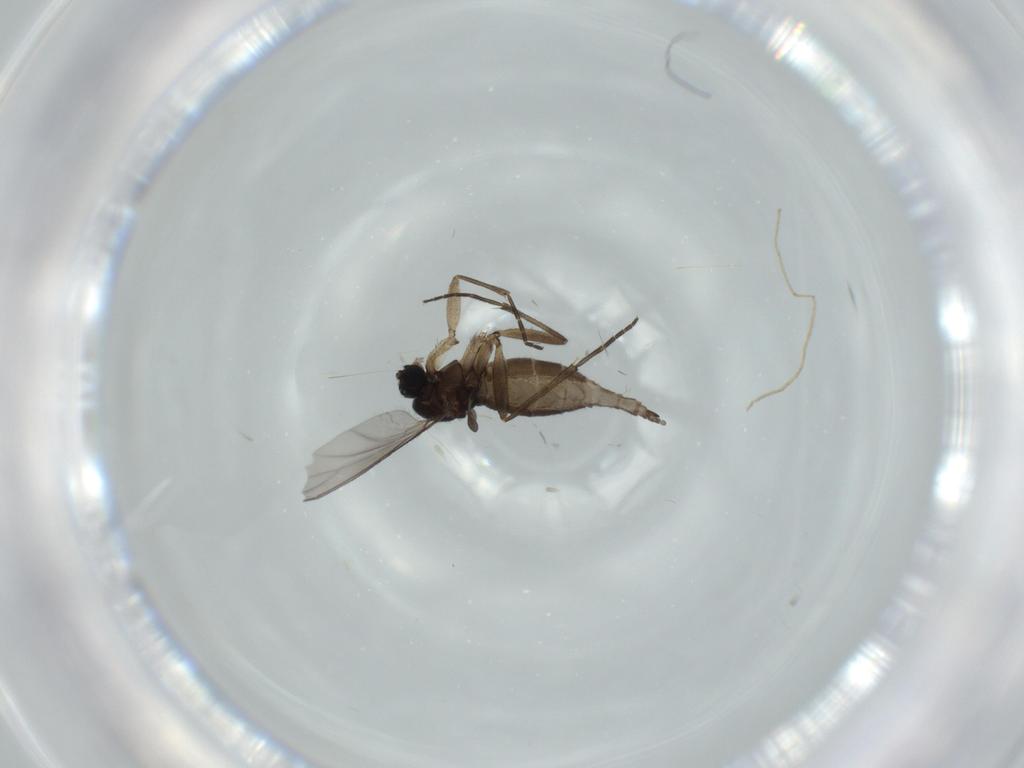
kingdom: Animalia
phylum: Arthropoda
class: Insecta
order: Diptera
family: Sciaridae
